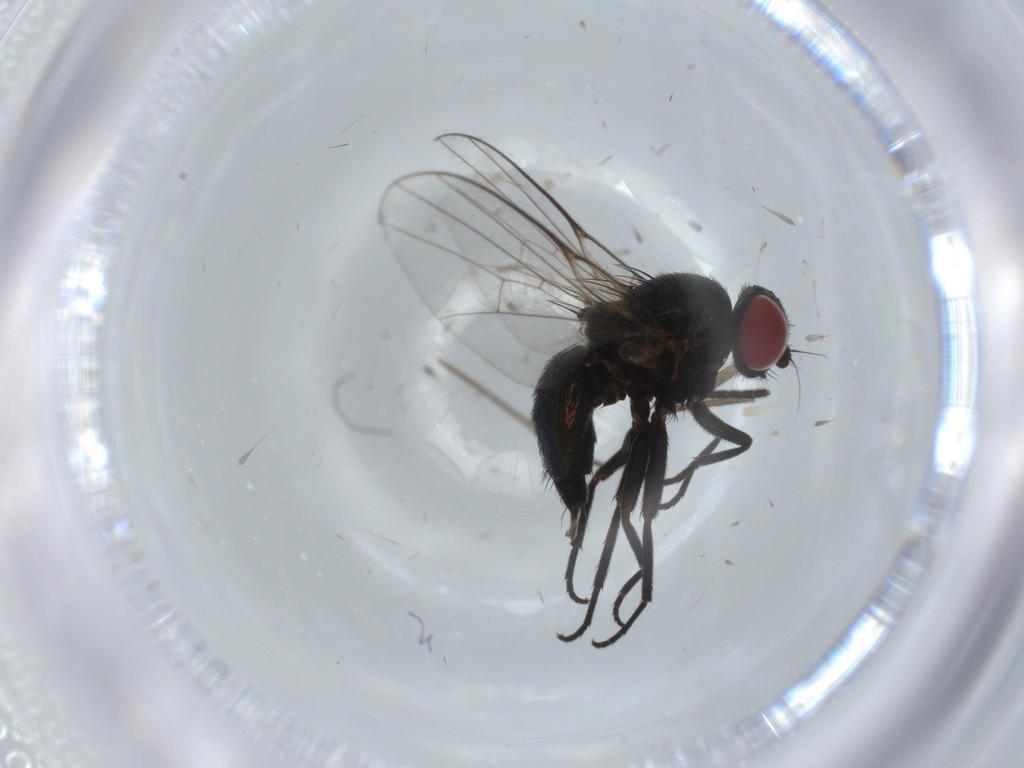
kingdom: Animalia
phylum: Arthropoda
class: Insecta
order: Diptera
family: Agromyzidae
